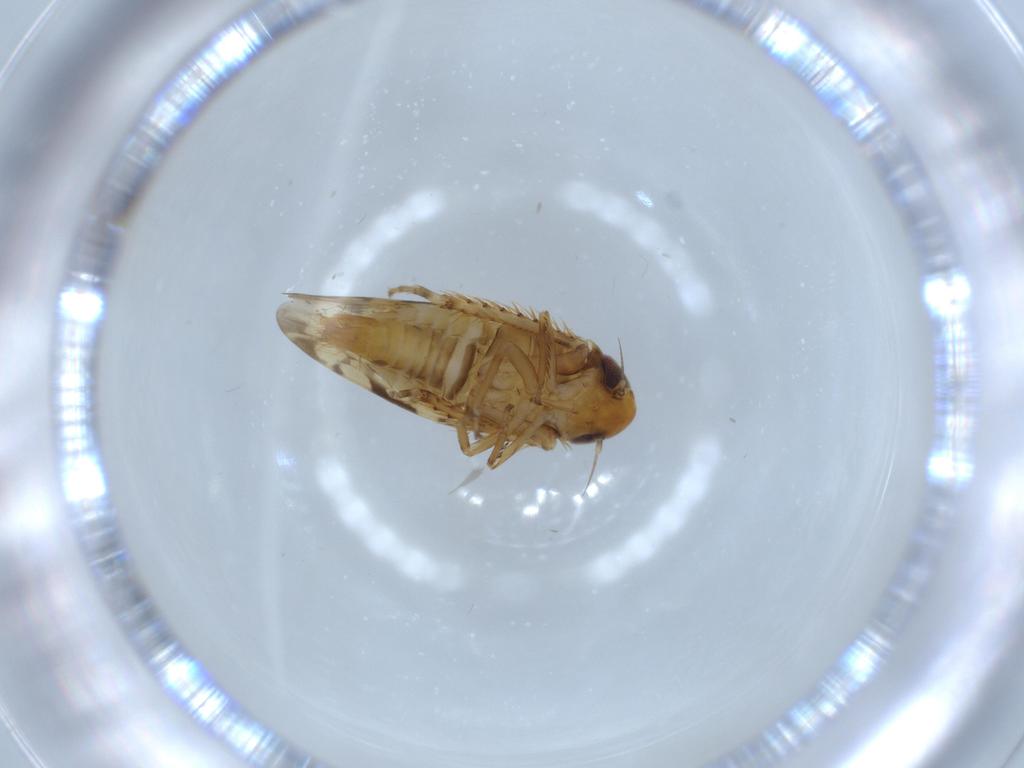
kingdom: Animalia
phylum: Arthropoda
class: Insecta
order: Hemiptera
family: Cicadellidae
